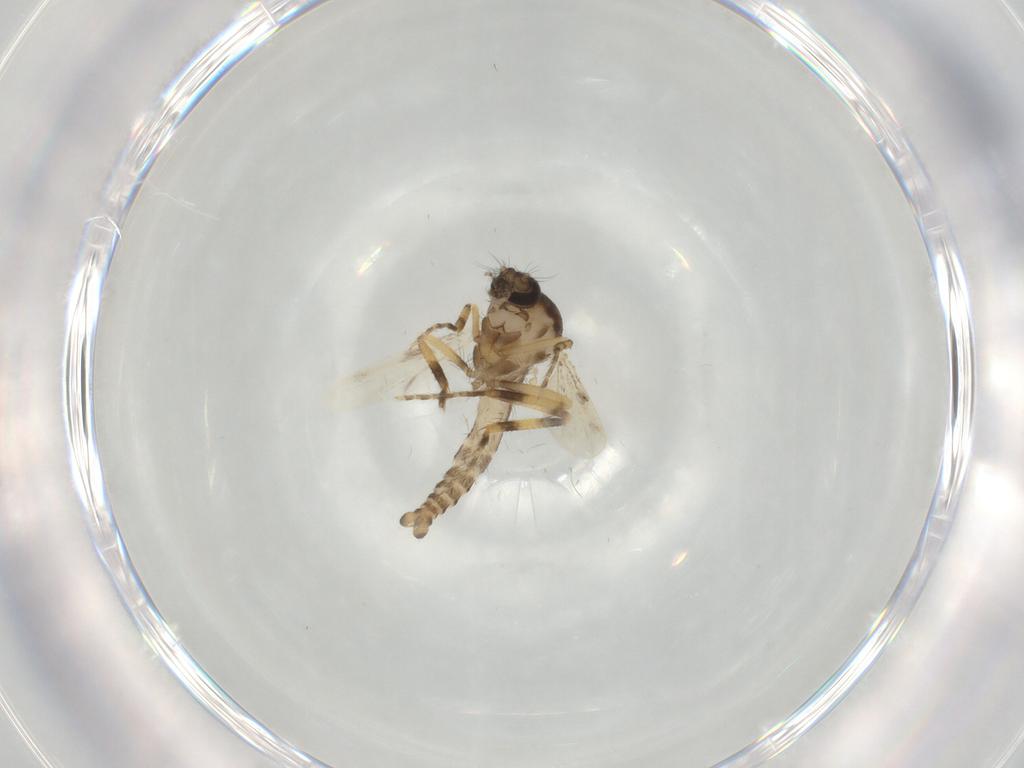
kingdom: Animalia
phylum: Arthropoda
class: Insecta
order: Diptera
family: Ceratopogonidae
